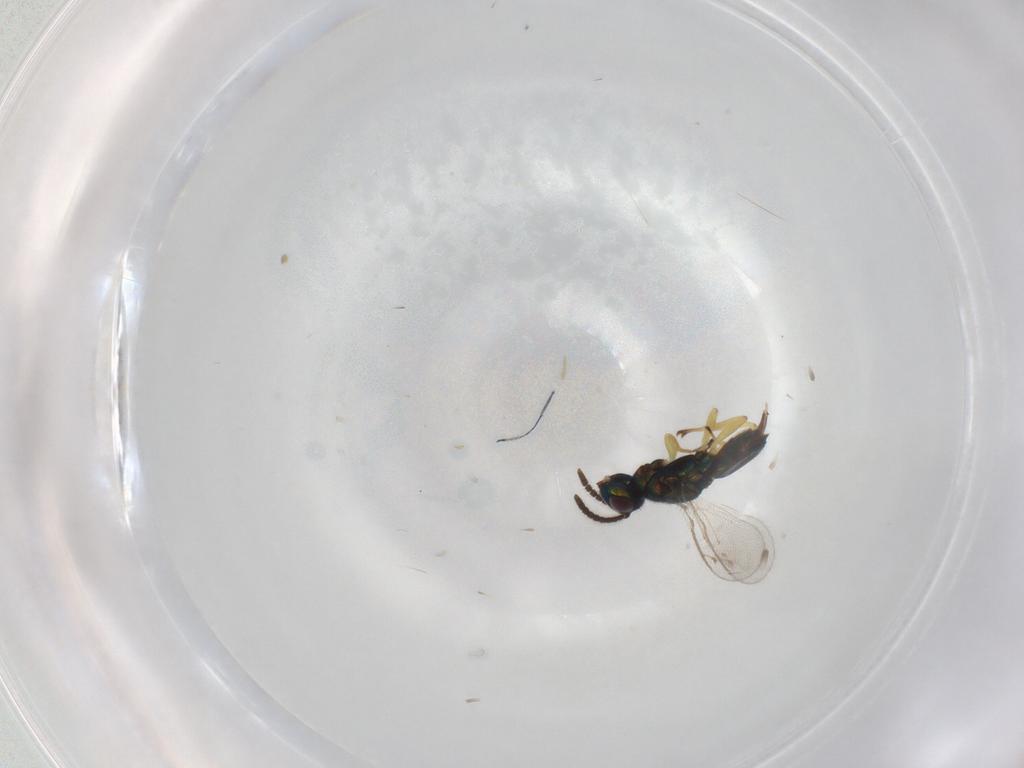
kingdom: Animalia
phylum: Arthropoda
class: Insecta
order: Hymenoptera
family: Eupelmidae
